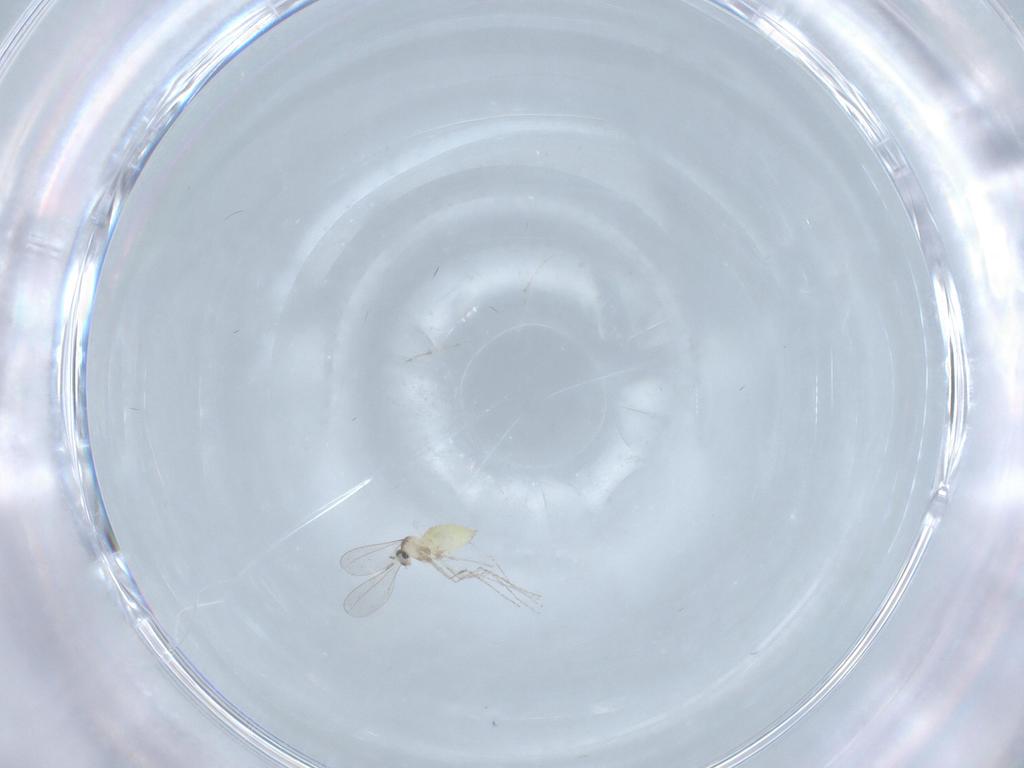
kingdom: Animalia
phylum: Arthropoda
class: Insecta
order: Diptera
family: Cecidomyiidae
